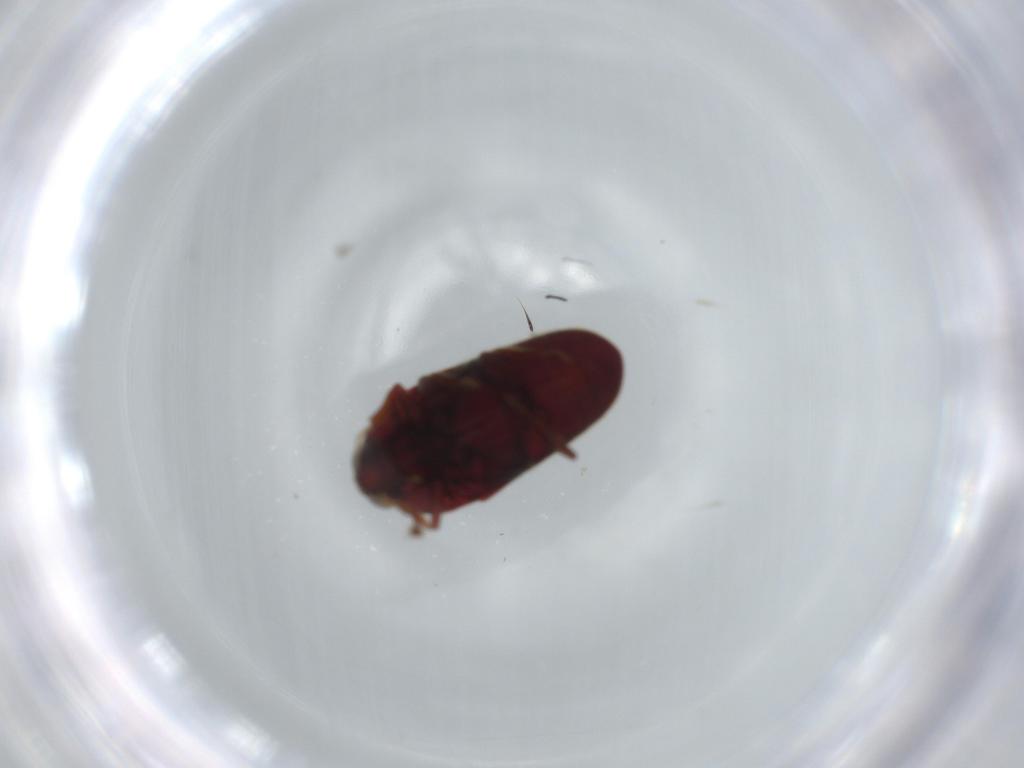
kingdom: Animalia
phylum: Arthropoda
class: Insecta
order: Coleoptera
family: Throscidae
